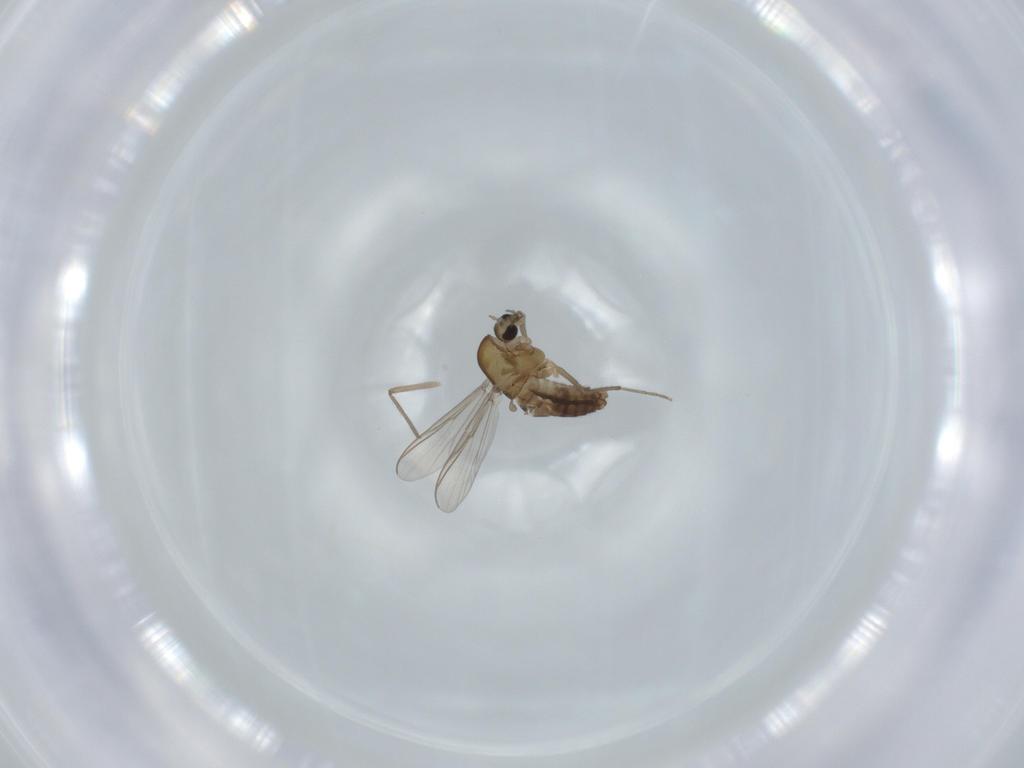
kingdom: Animalia
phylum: Arthropoda
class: Insecta
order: Diptera
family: Chironomidae
